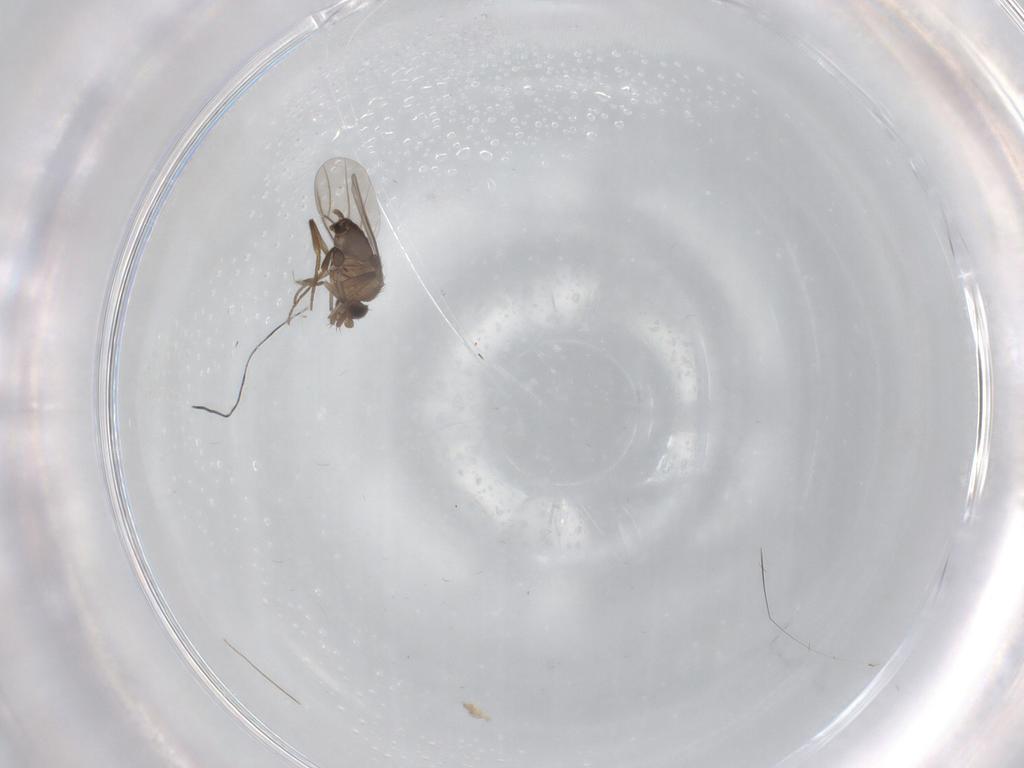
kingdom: Animalia
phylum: Arthropoda
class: Insecta
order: Diptera
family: Chironomidae
